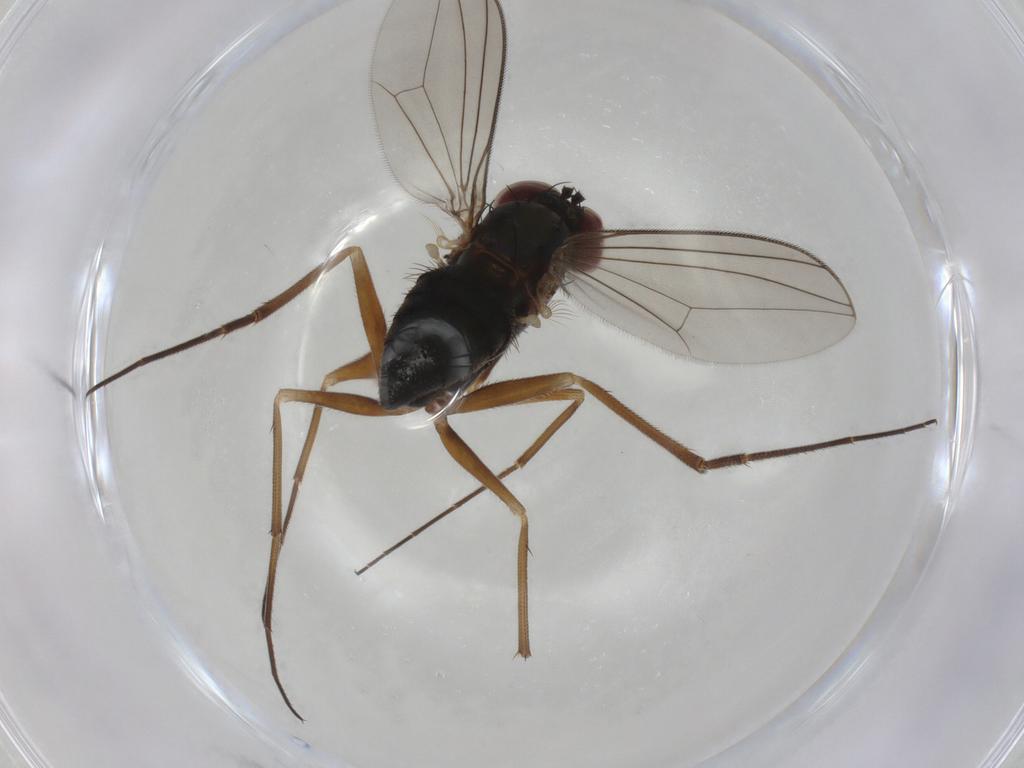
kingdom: Animalia
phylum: Arthropoda
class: Insecta
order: Diptera
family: Dolichopodidae
